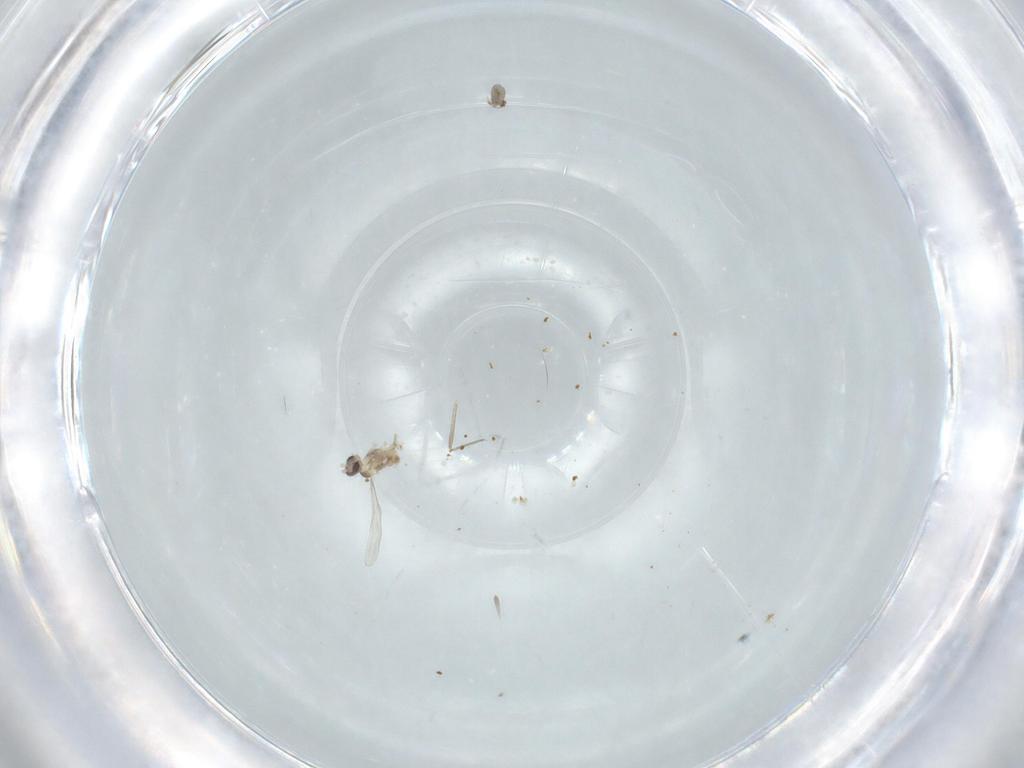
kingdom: Animalia
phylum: Arthropoda
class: Insecta
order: Diptera
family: Cecidomyiidae
